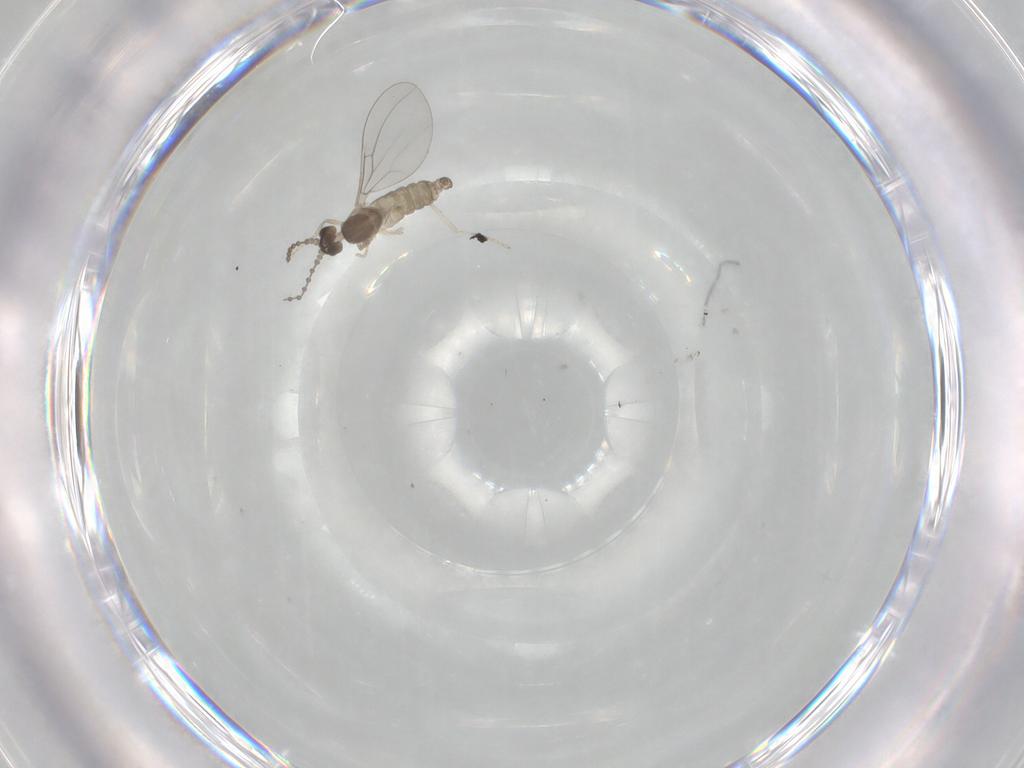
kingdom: Animalia
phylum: Arthropoda
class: Insecta
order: Diptera
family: Cecidomyiidae
